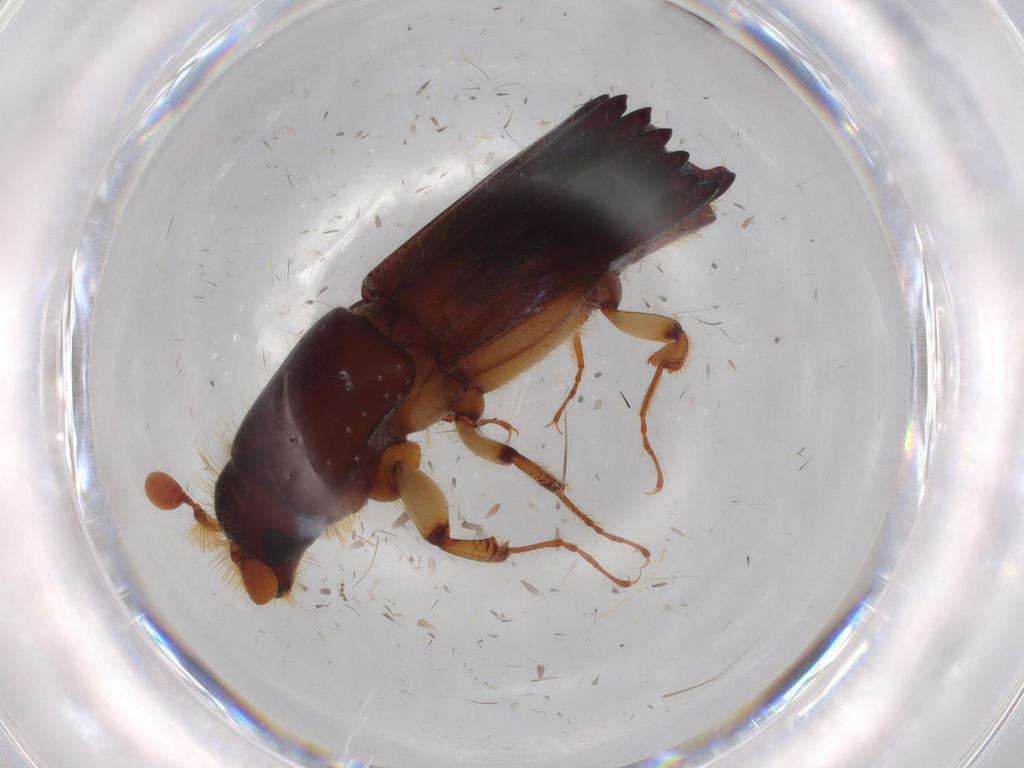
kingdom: Animalia
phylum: Arthropoda
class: Insecta
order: Coleoptera
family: Curculionidae
